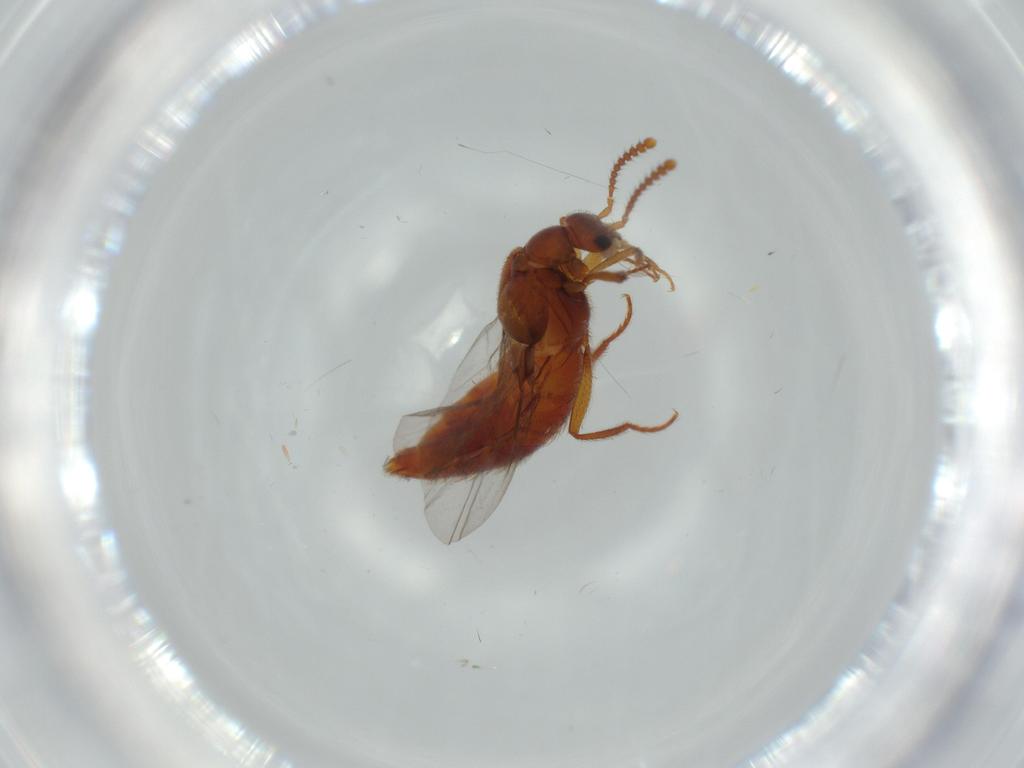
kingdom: Animalia
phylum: Arthropoda
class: Insecta
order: Coleoptera
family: Staphylinidae
